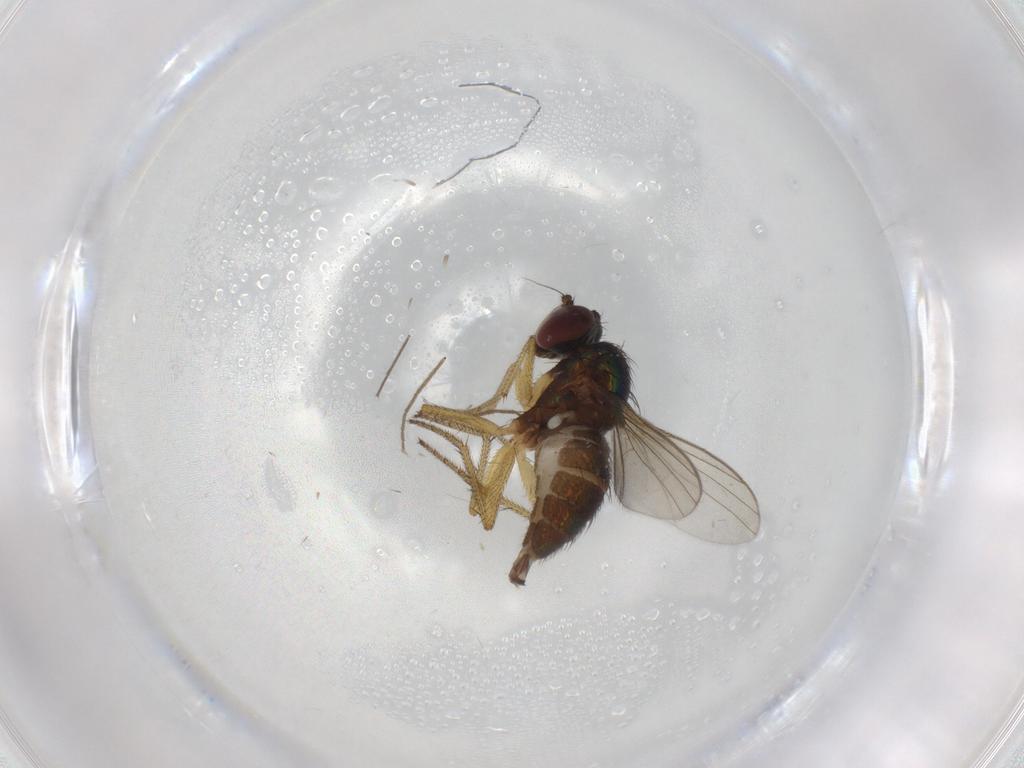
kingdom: Animalia
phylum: Arthropoda
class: Insecta
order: Diptera
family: Dolichopodidae
